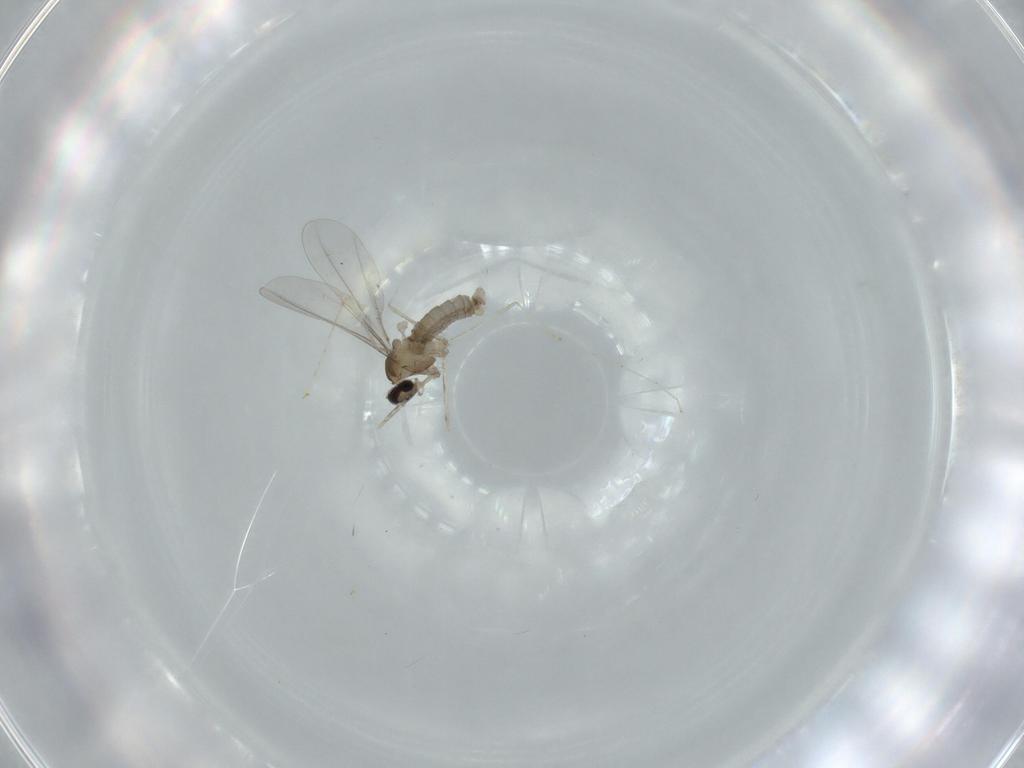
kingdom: Animalia
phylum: Arthropoda
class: Insecta
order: Diptera
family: Cecidomyiidae
